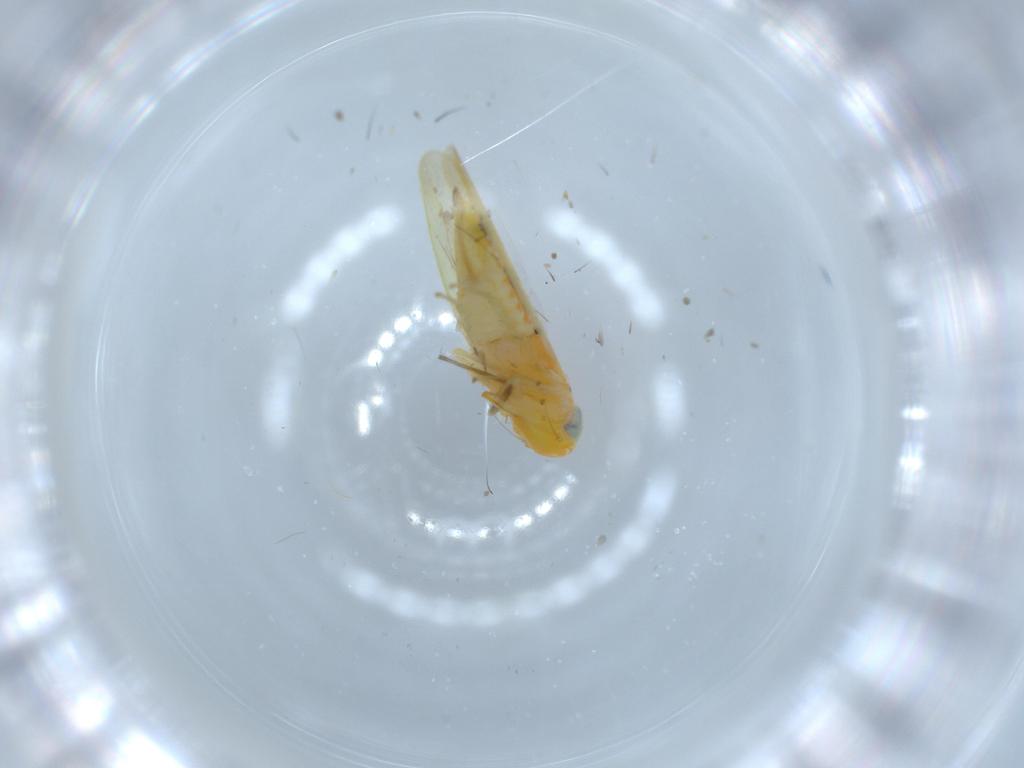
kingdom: Animalia
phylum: Arthropoda
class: Insecta
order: Hemiptera
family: Cicadellidae
